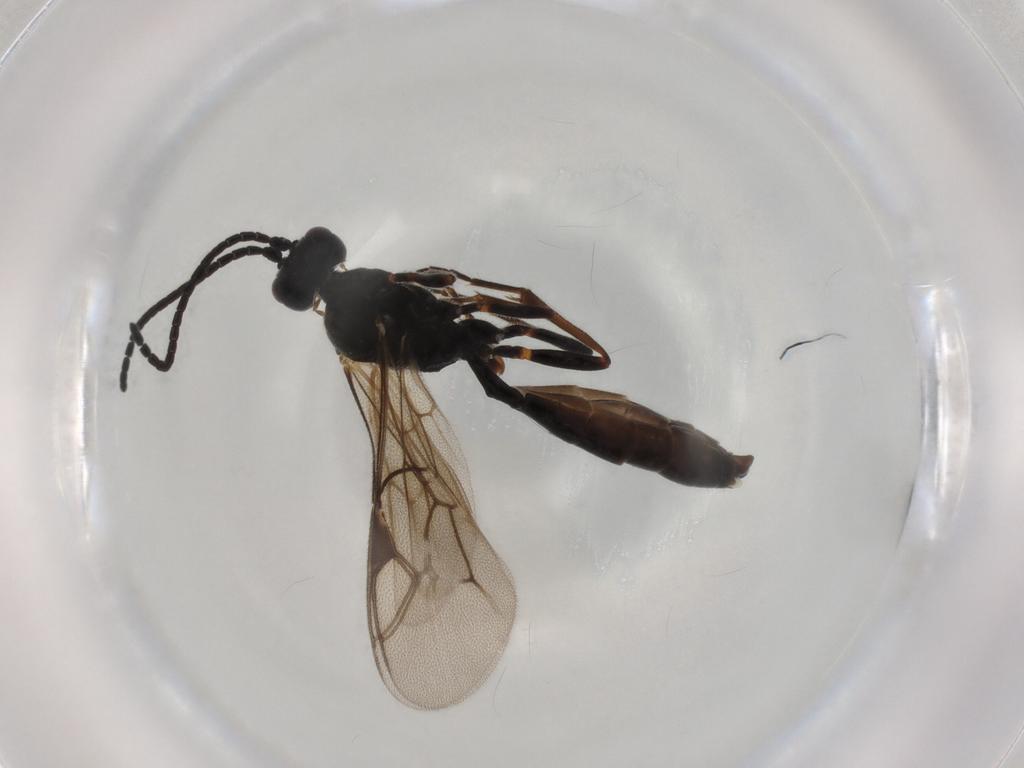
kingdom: Animalia
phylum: Arthropoda
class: Insecta
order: Hymenoptera
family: Ichneumonidae
